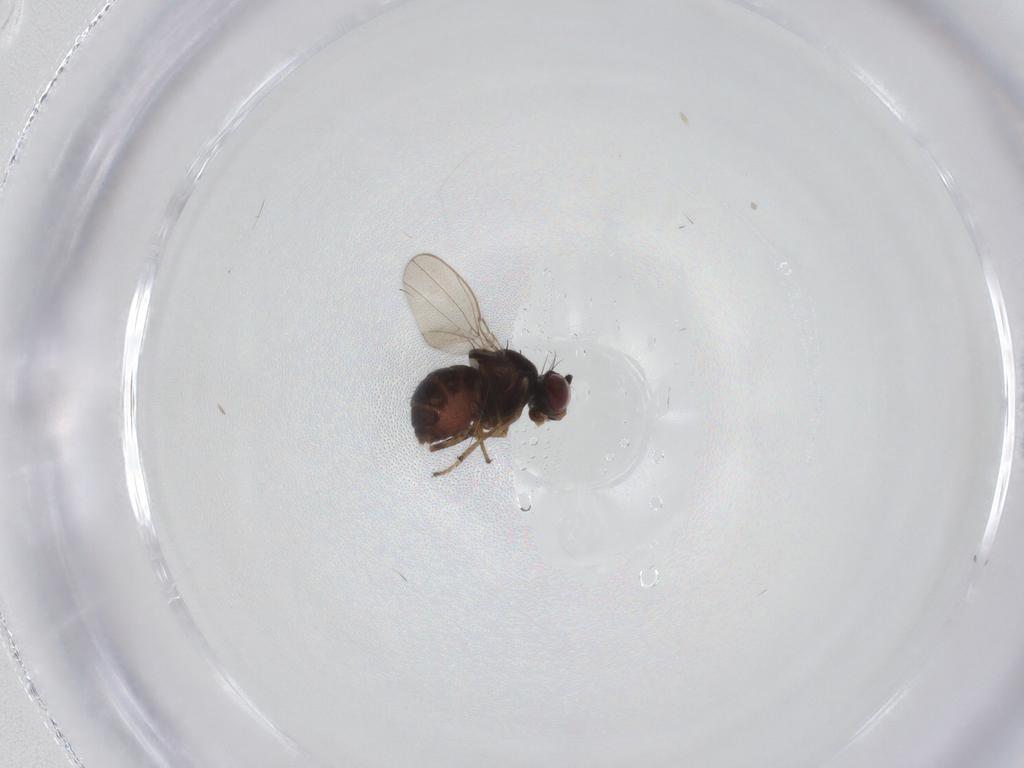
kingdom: Animalia
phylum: Arthropoda
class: Insecta
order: Diptera
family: Ephydridae
